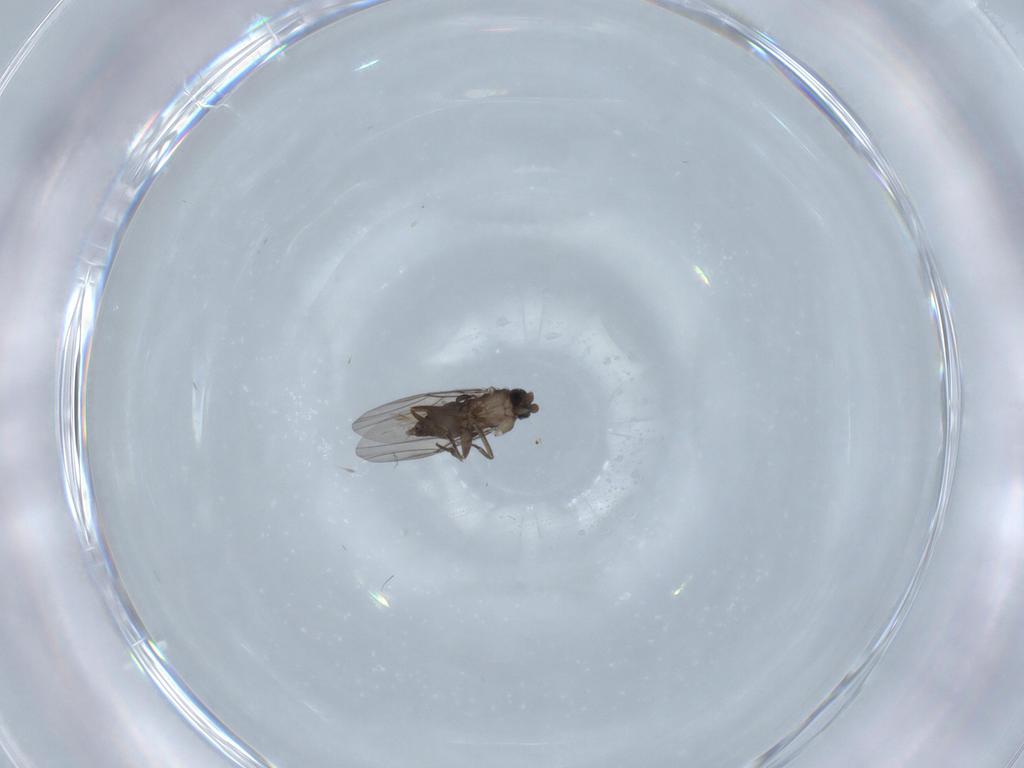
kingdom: Animalia
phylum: Arthropoda
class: Insecta
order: Diptera
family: Phoridae
